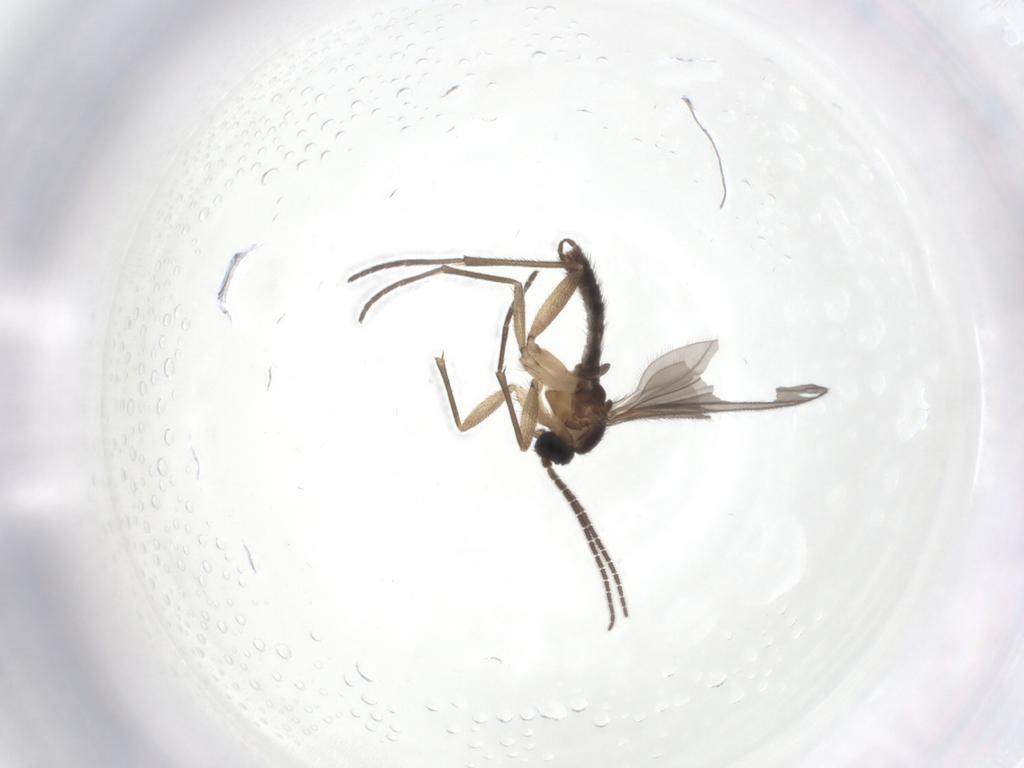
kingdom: Animalia
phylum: Arthropoda
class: Insecta
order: Diptera
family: Sciaridae
